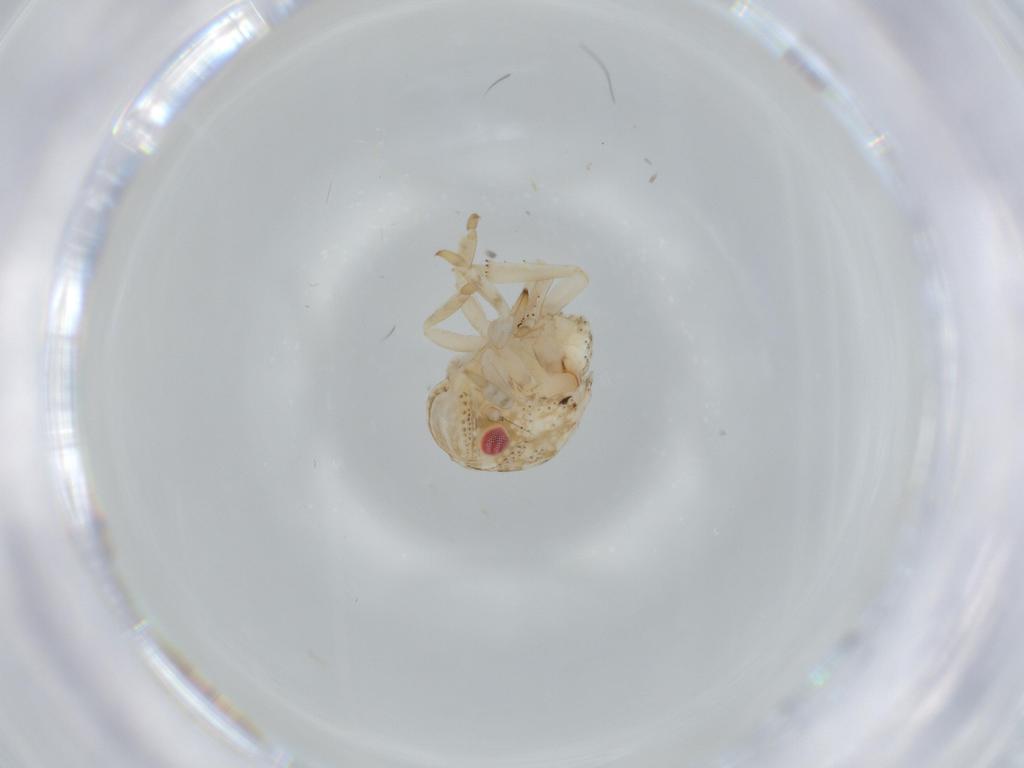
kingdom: Animalia
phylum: Arthropoda
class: Insecta
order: Hemiptera
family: Acanaloniidae
